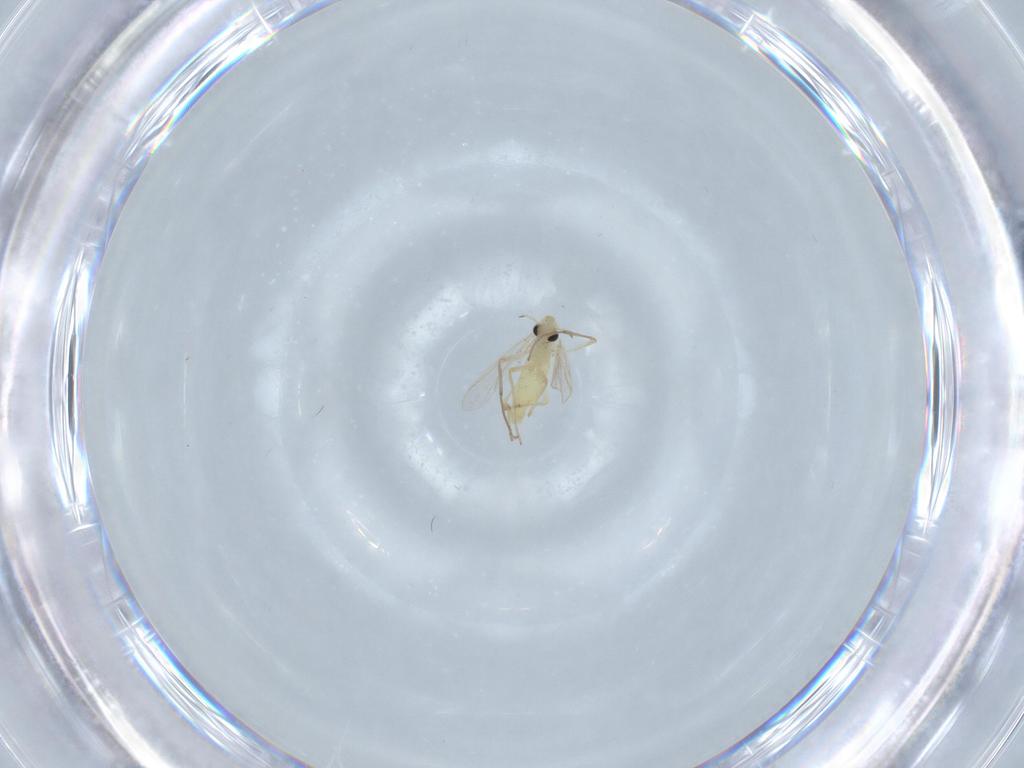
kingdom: Animalia
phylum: Arthropoda
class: Insecta
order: Diptera
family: Chironomidae
